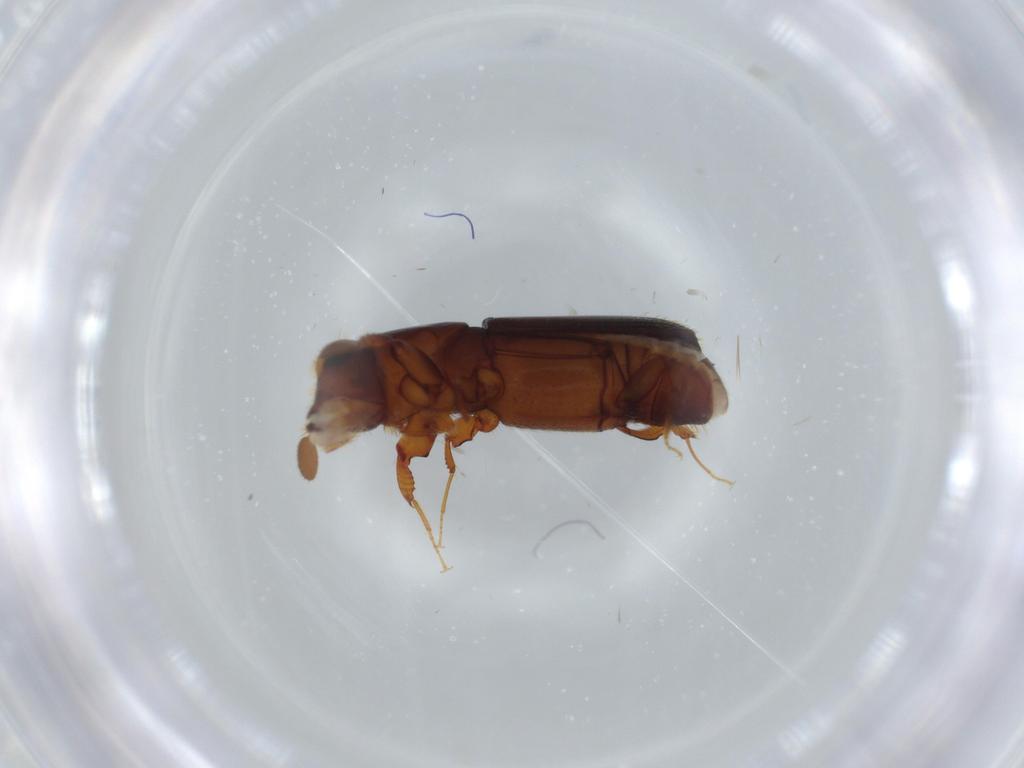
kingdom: Animalia
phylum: Arthropoda
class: Insecta
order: Coleoptera
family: Curculionidae
